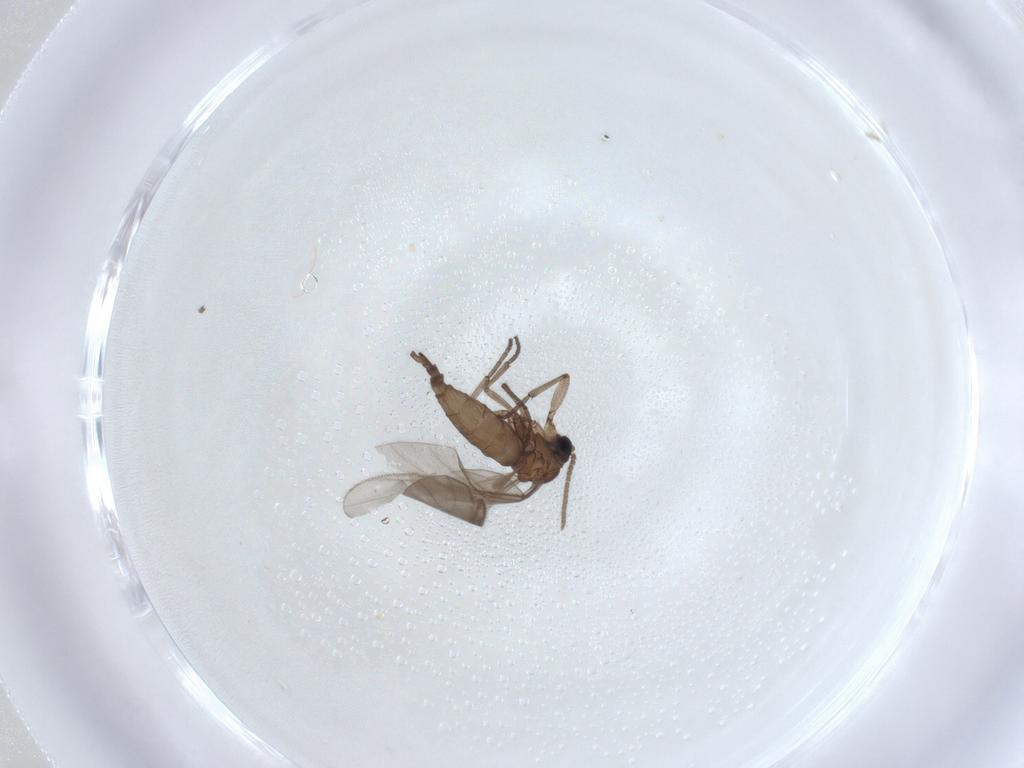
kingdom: Animalia
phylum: Arthropoda
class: Insecta
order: Diptera
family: Sciaridae
